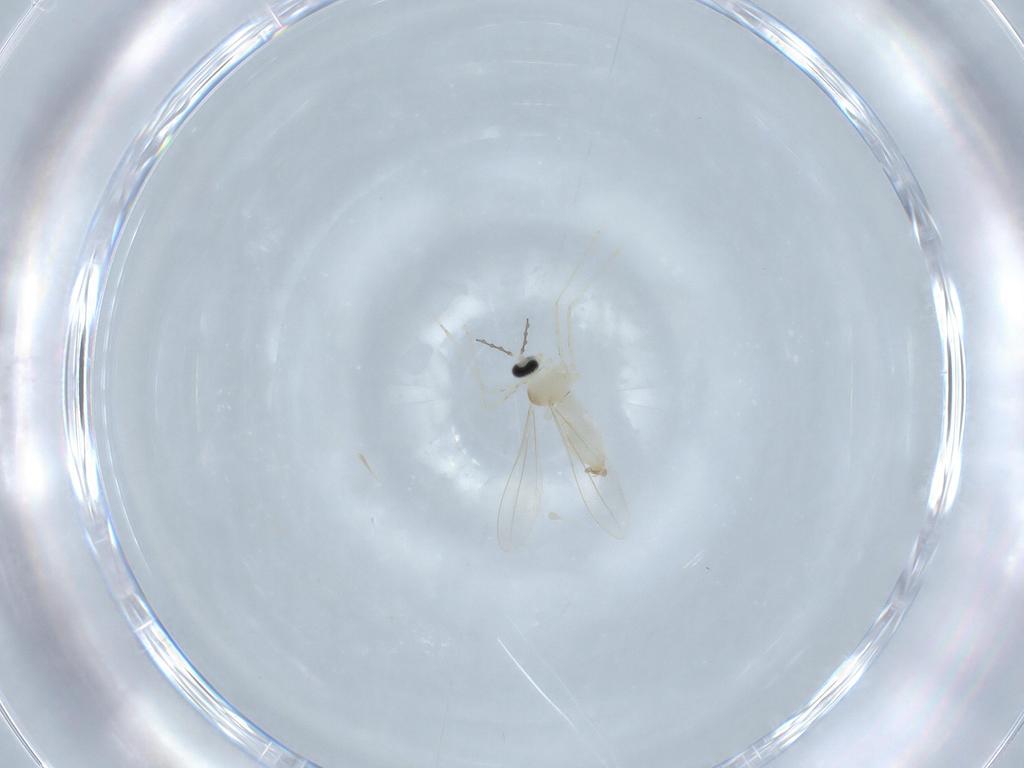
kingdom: Animalia
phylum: Arthropoda
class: Insecta
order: Diptera
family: Cecidomyiidae
